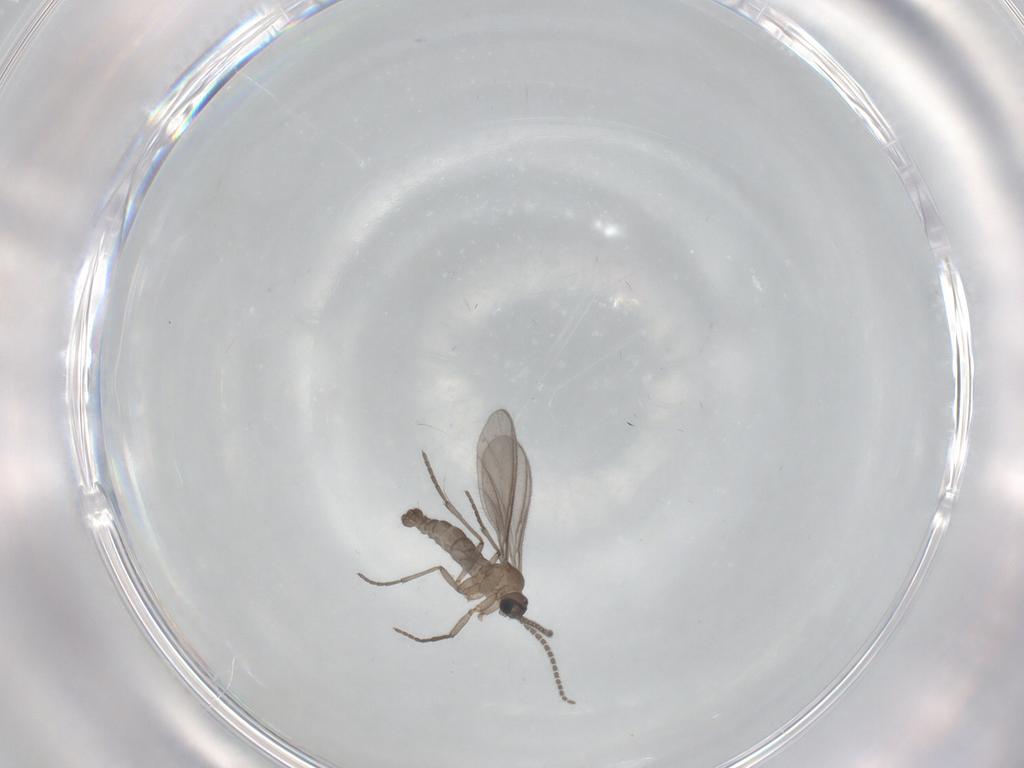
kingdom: Animalia
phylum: Arthropoda
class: Insecta
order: Diptera
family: Sciaridae
